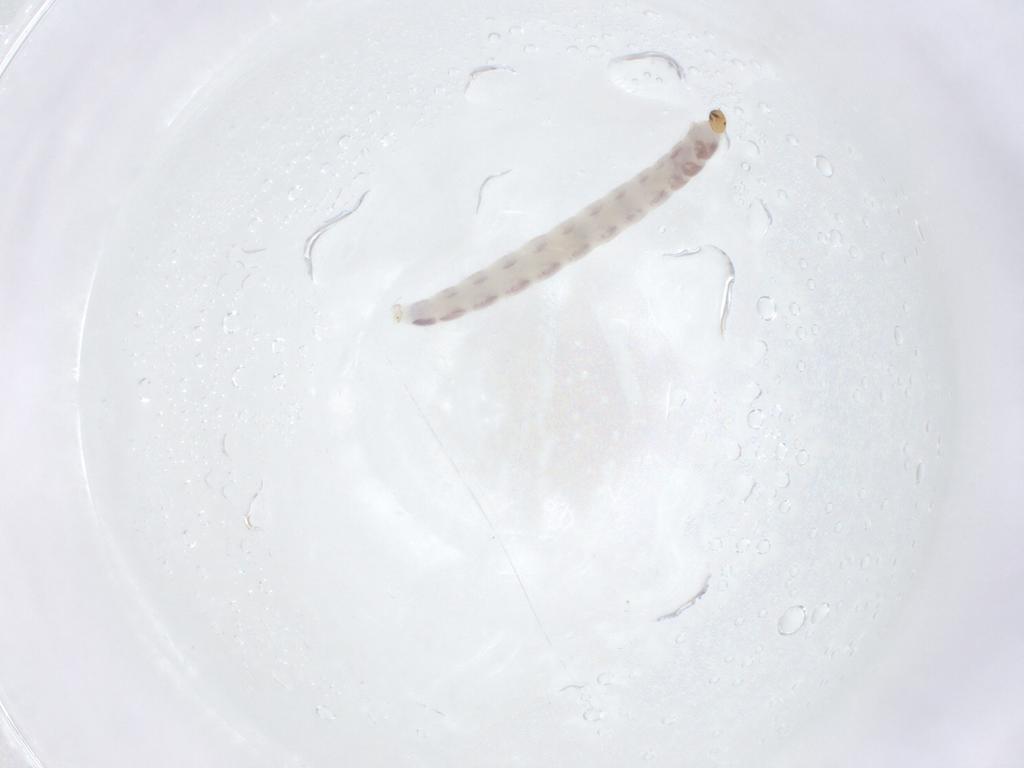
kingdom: Animalia
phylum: Arthropoda
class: Insecta
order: Diptera
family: Chironomidae
